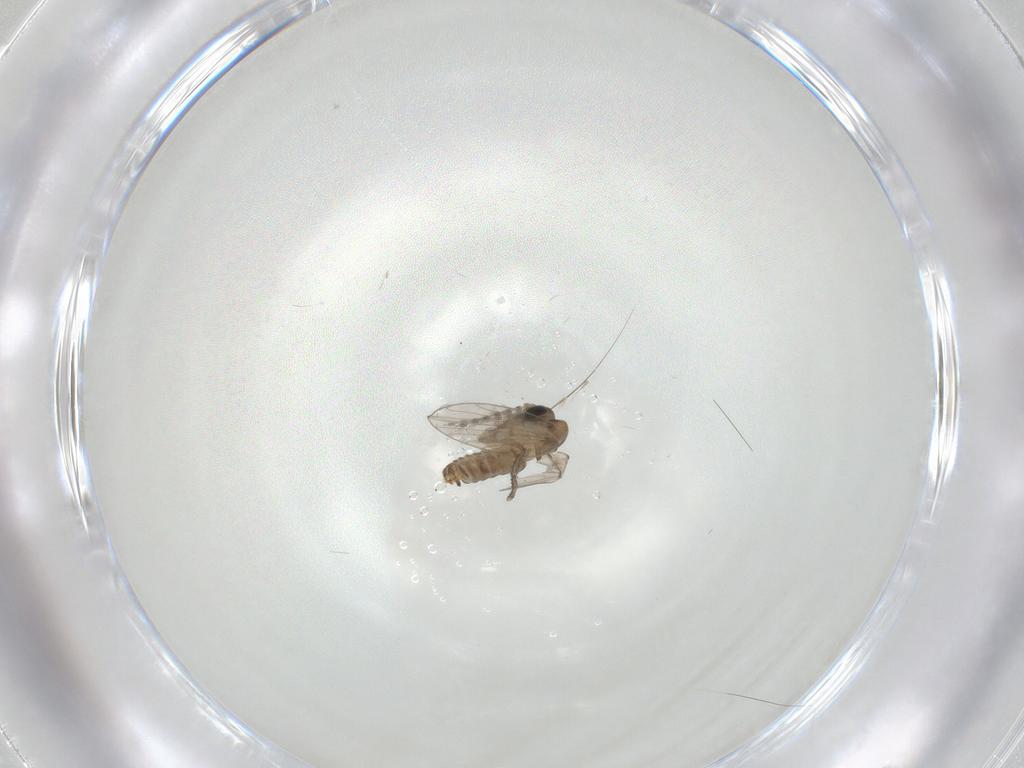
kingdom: Animalia
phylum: Arthropoda
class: Insecta
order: Diptera
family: Psychodidae
